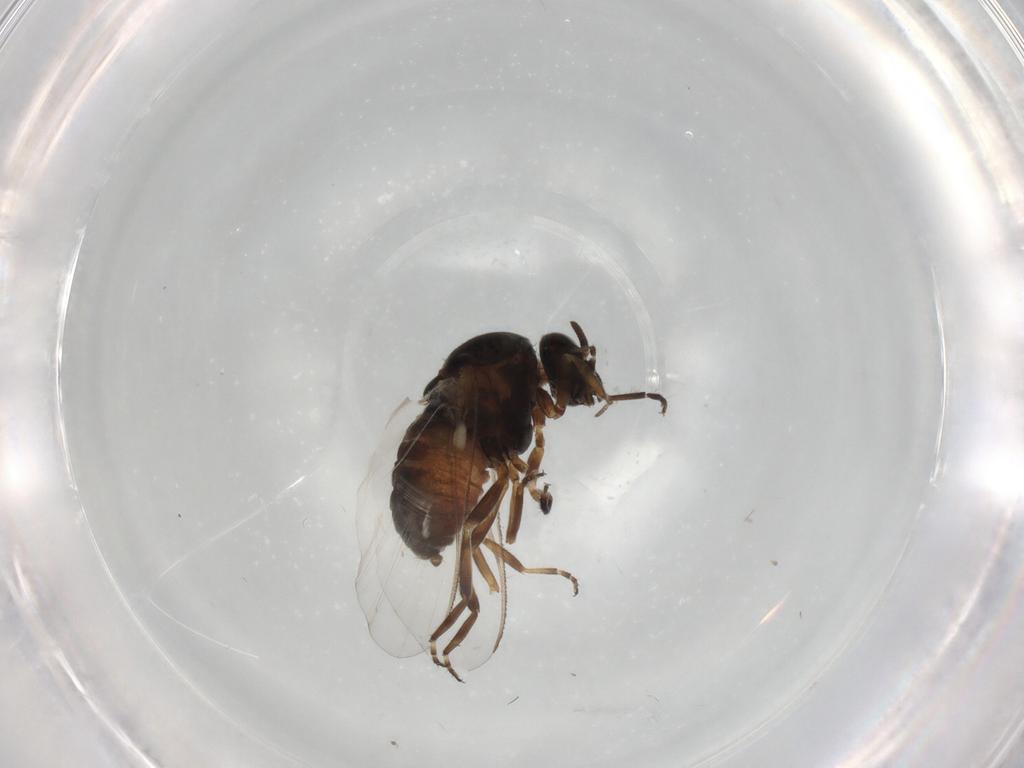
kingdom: Animalia
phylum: Arthropoda
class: Insecta
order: Diptera
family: Simuliidae
